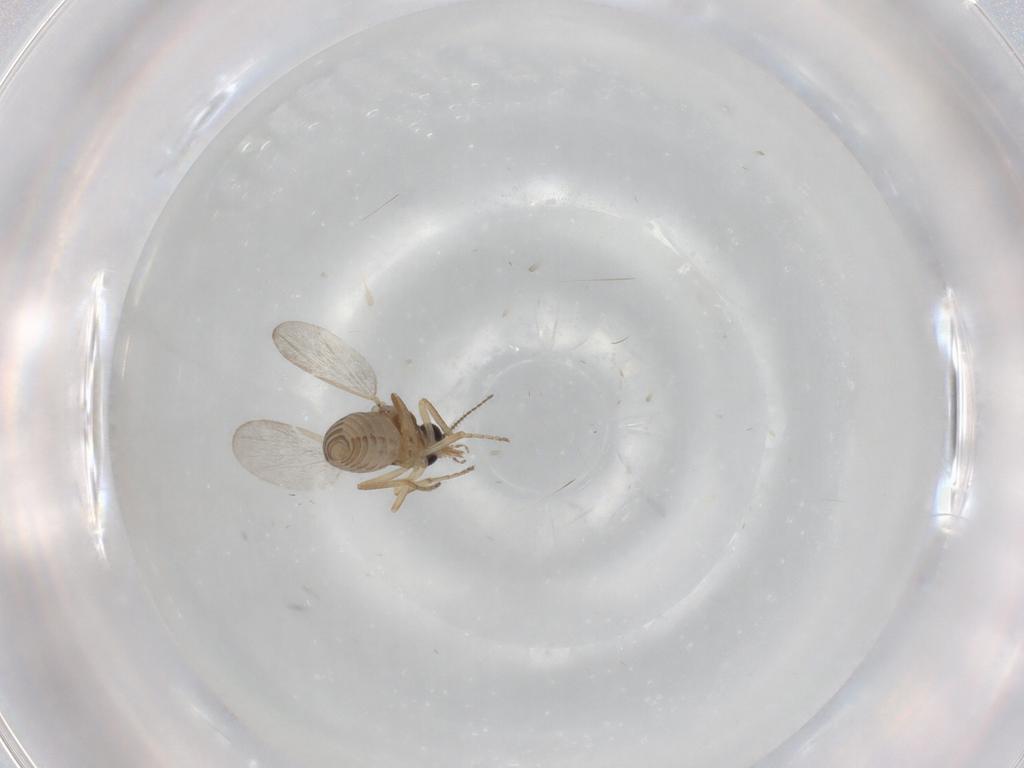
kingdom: Animalia
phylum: Arthropoda
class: Insecta
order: Diptera
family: Ceratopogonidae
